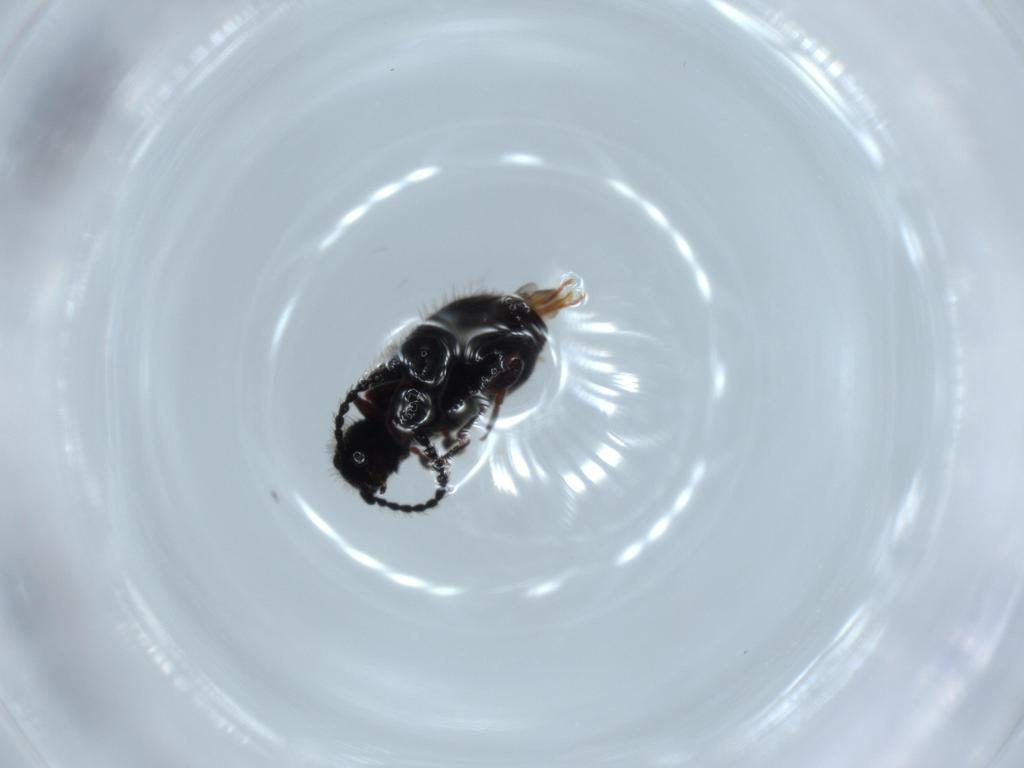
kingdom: Animalia
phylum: Arthropoda
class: Insecta
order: Coleoptera
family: Ptinidae
